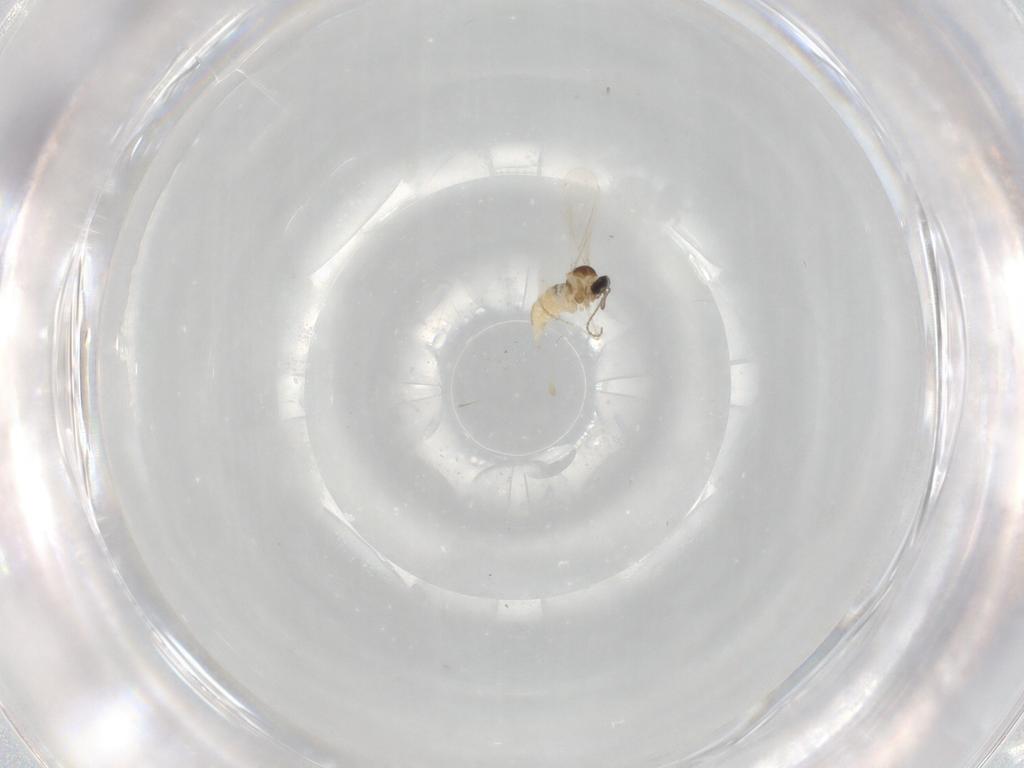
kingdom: Animalia
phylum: Arthropoda
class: Insecta
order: Diptera
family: Cecidomyiidae
